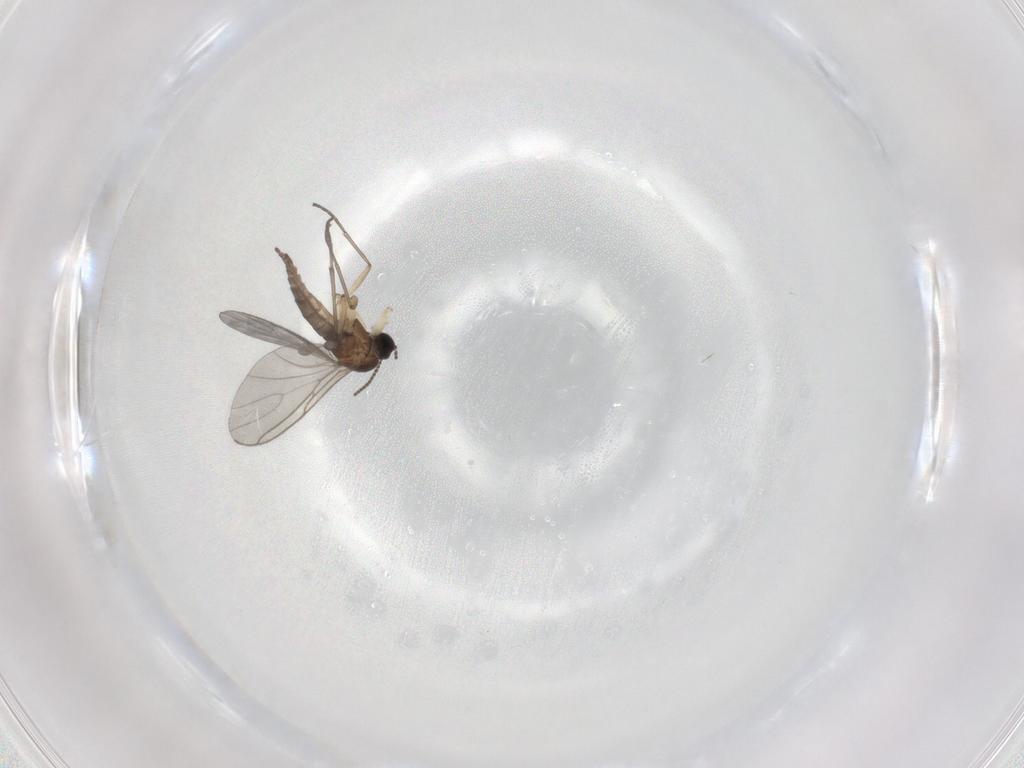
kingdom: Animalia
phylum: Arthropoda
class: Insecta
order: Diptera
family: Sciaridae
